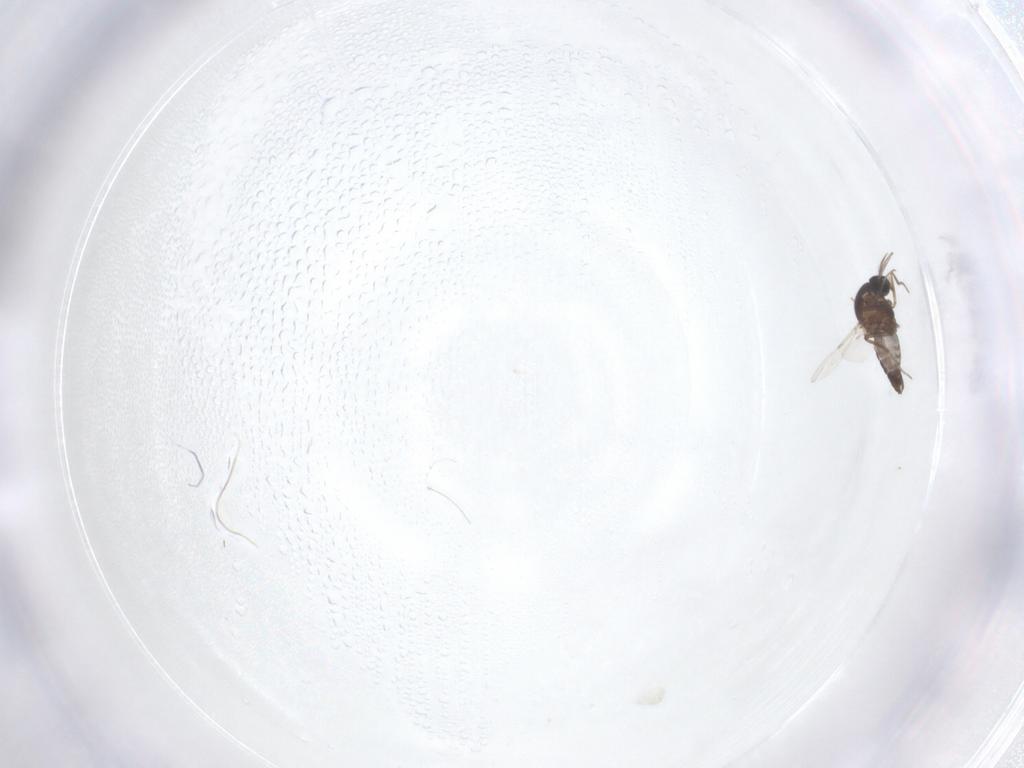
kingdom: Animalia
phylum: Arthropoda
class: Insecta
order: Diptera
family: Ceratopogonidae
